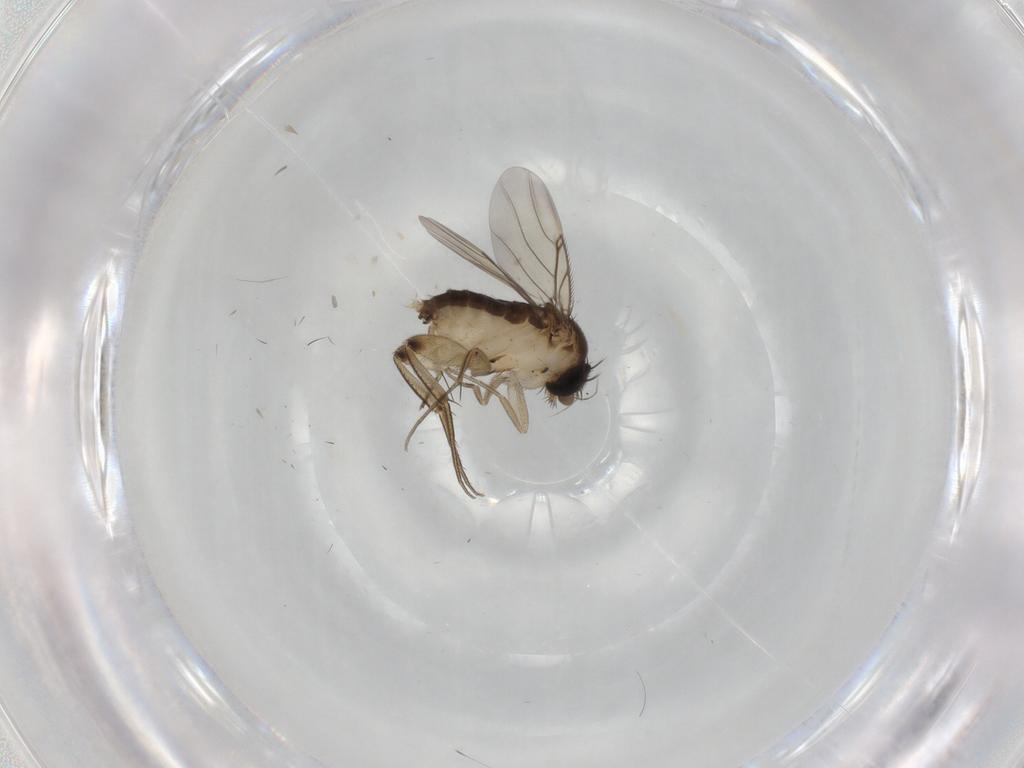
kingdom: Animalia
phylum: Arthropoda
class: Insecta
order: Diptera
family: Phoridae
